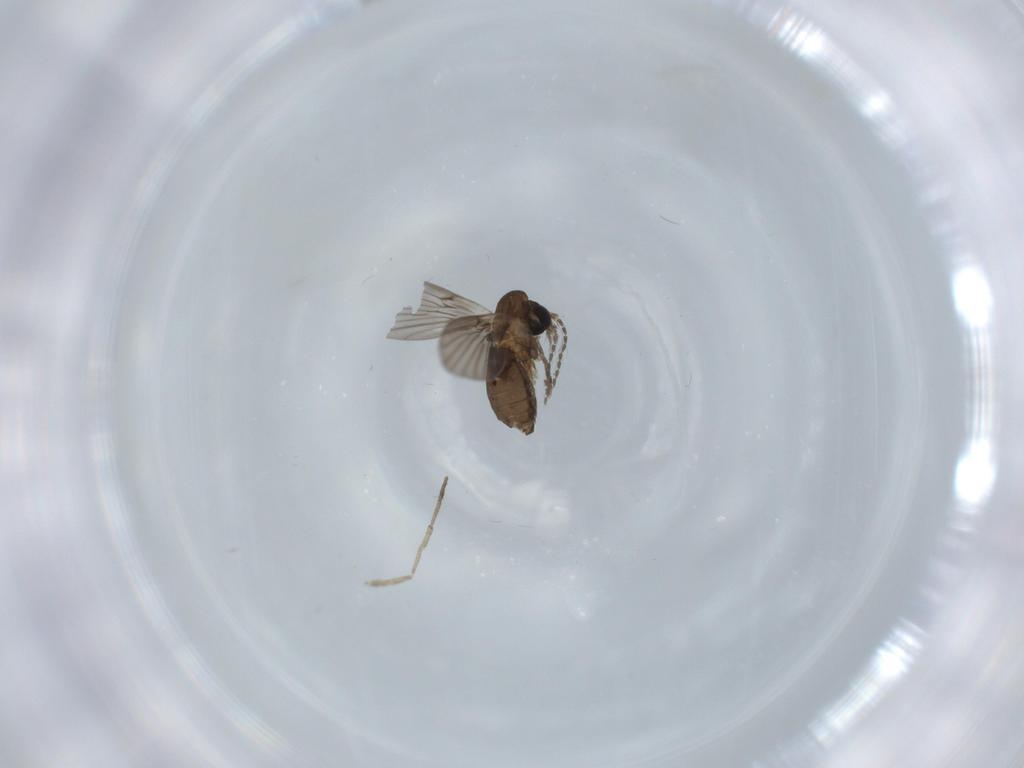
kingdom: Animalia
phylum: Arthropoda
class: Insecta
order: Diptera
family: Psychodidae
